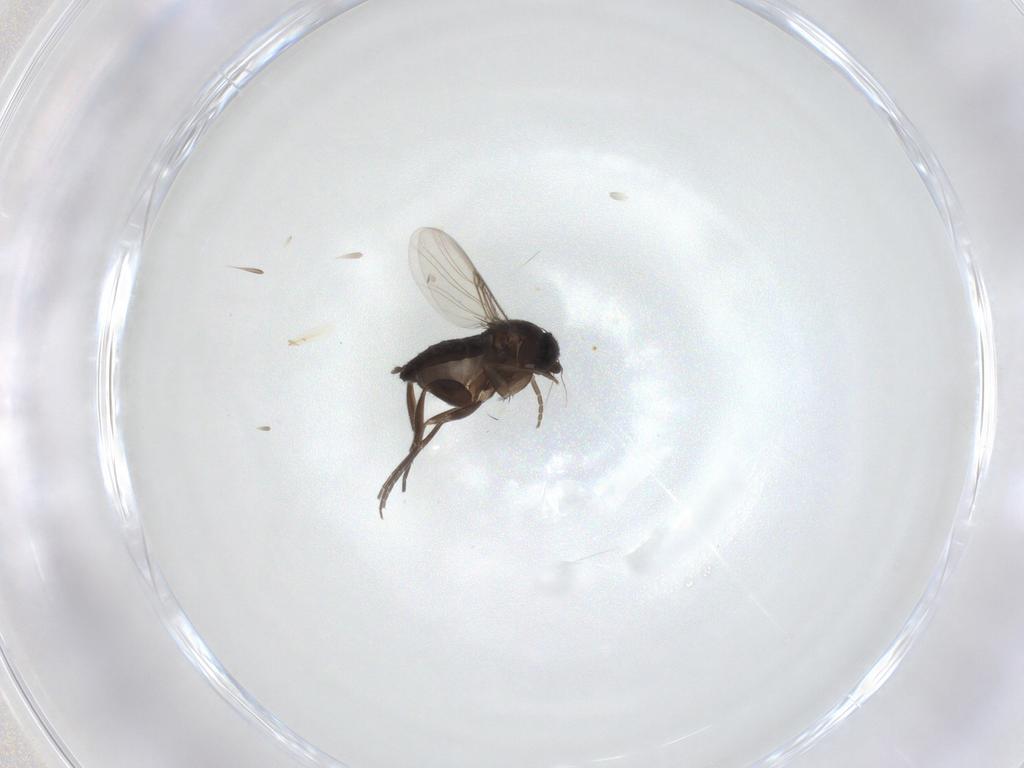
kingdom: Animalia
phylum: Arthropoda
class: Insecta
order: Diptera
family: Phoridae
